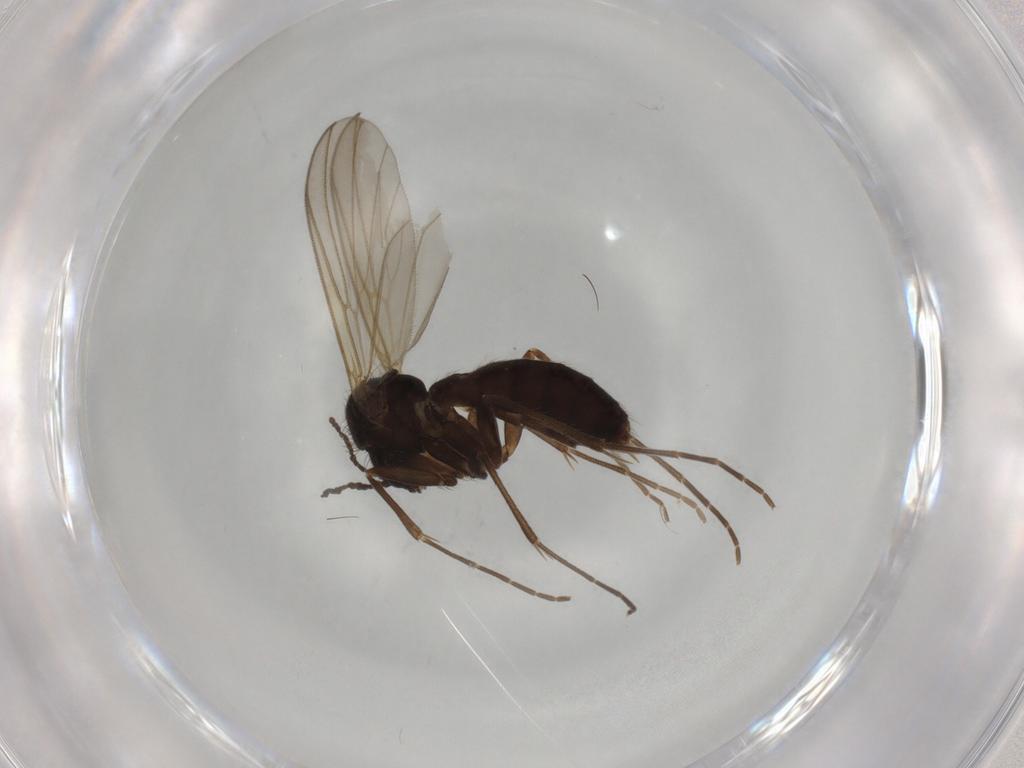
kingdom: Animalia
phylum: Arthropoda
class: Insecta
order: Diptera
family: Mycetophilidae
